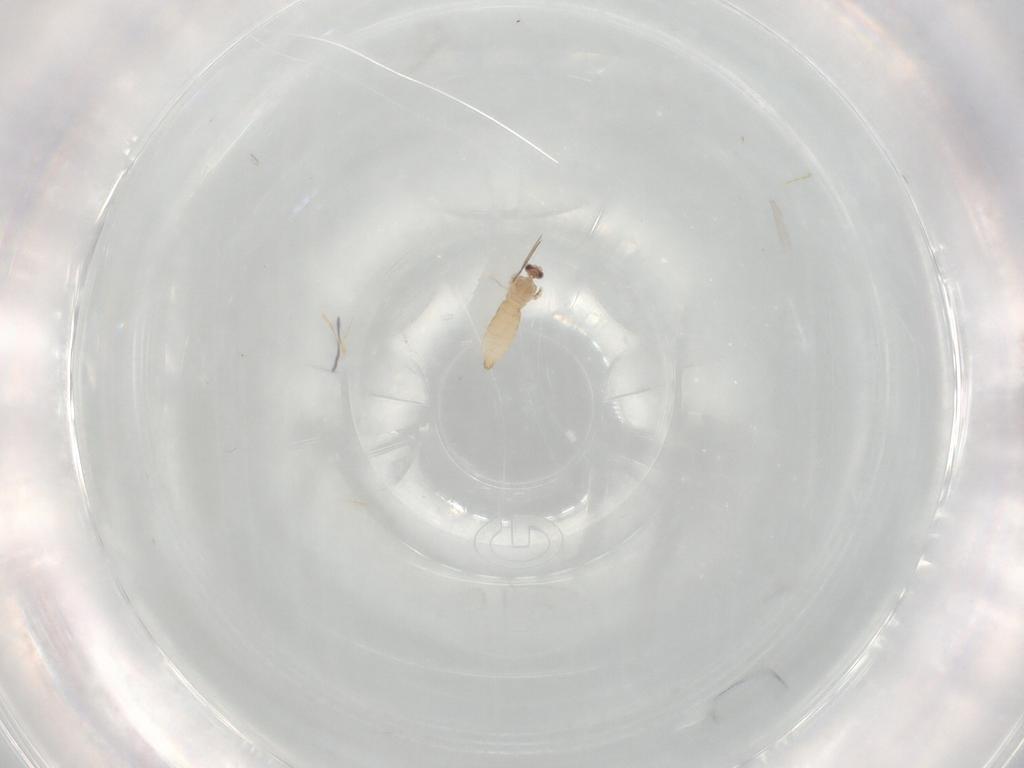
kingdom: Animalia
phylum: Arthropoda
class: Insecta
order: Diptera
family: Cecidomyiidae
